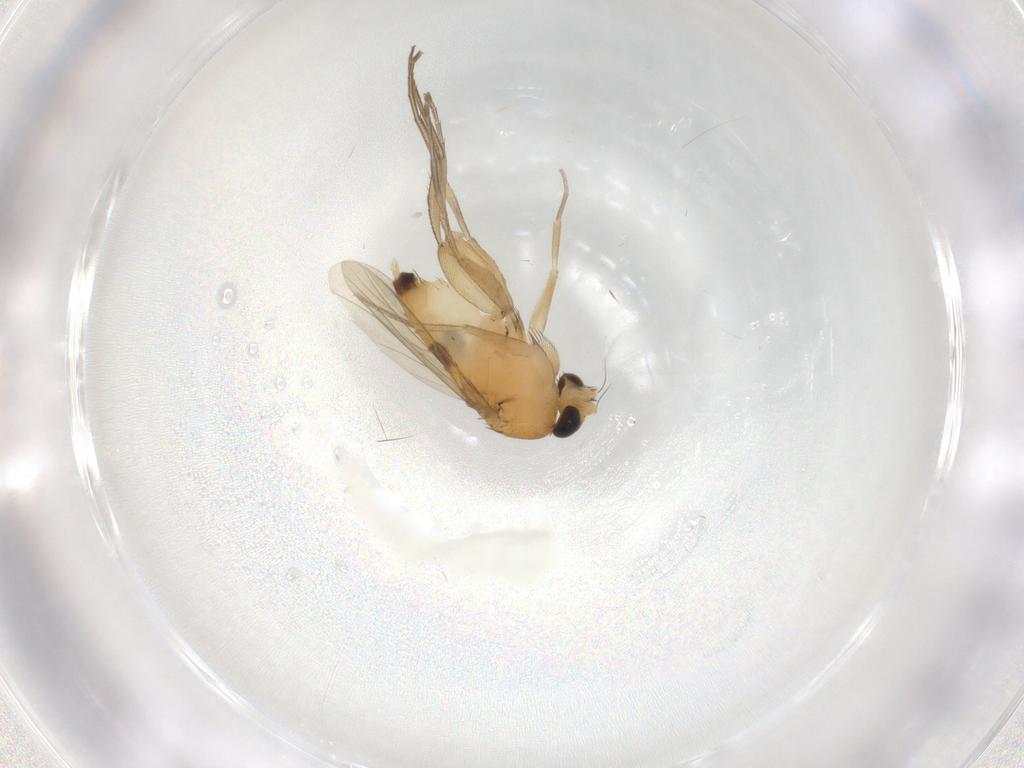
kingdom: Animalia
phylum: Arthropoda
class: Insecta
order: Diptera
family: Phoridae
